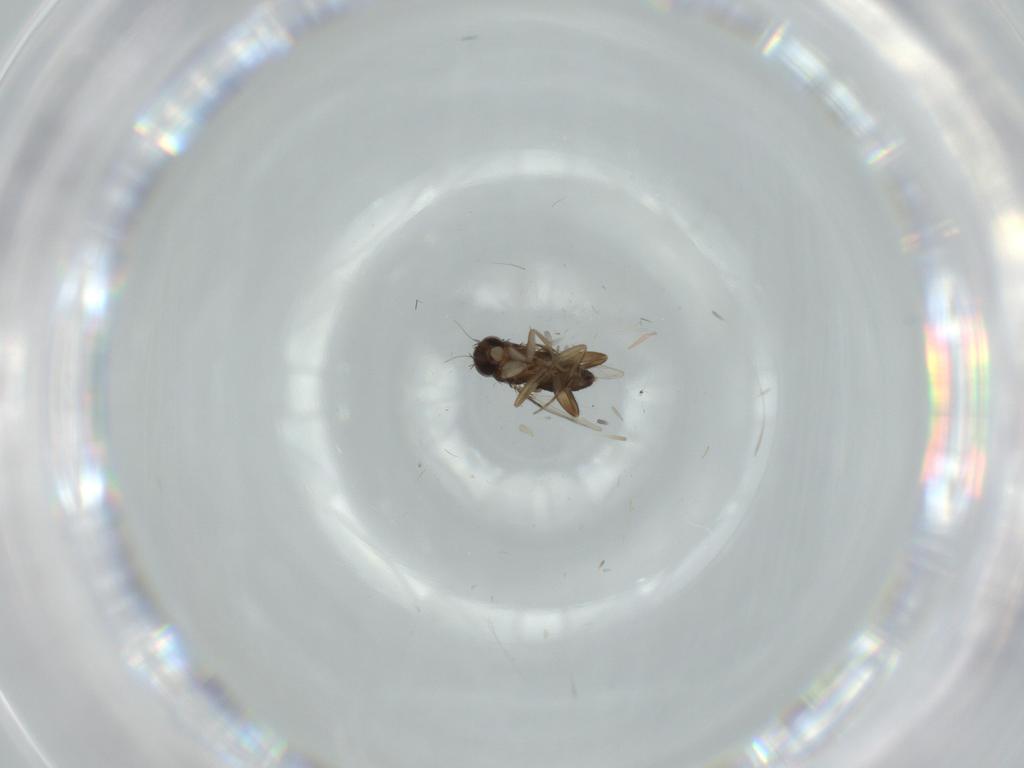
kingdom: Animalia
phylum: Arthropoda
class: Insecta
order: Diptera
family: Phoridae
